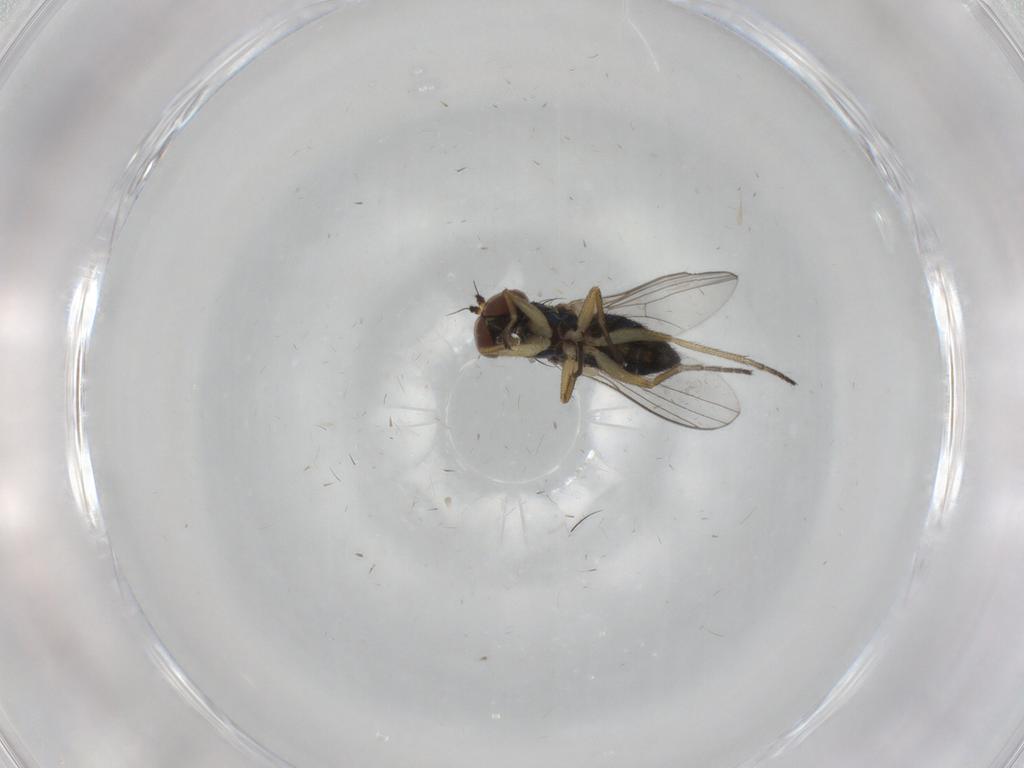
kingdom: Animalia
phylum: Arthropoda
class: Insecta
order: Diptera
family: Dolichopodidae
